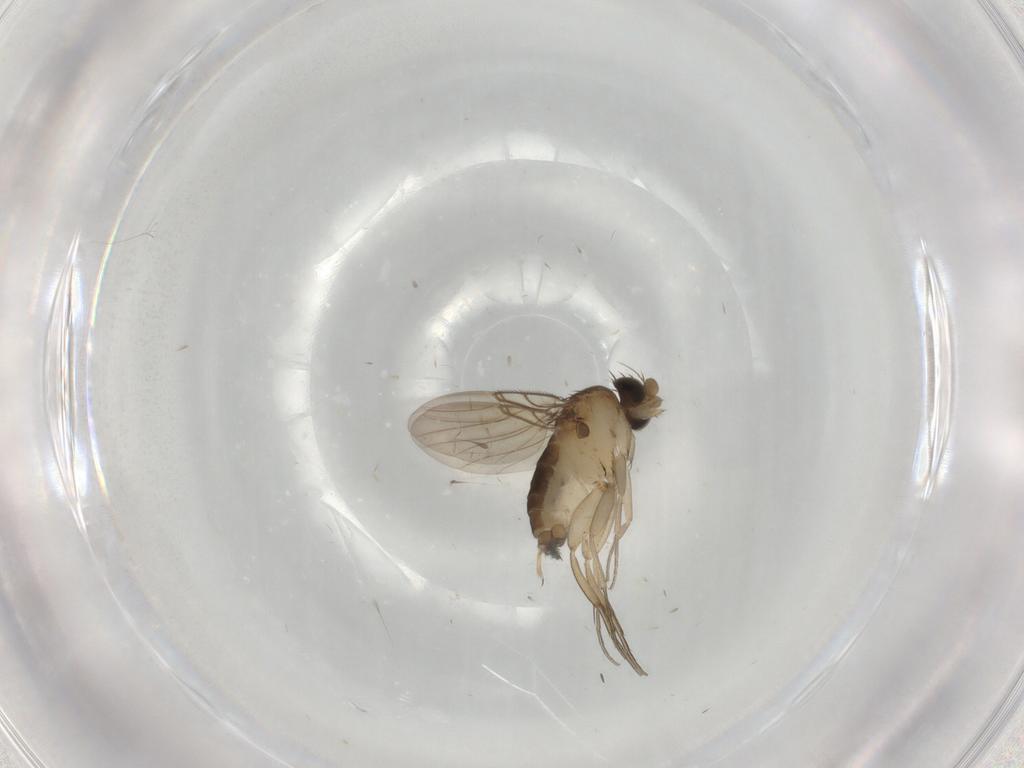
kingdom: Animalia
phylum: Arthropoda
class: Insecta
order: Diptera
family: Phoridae
